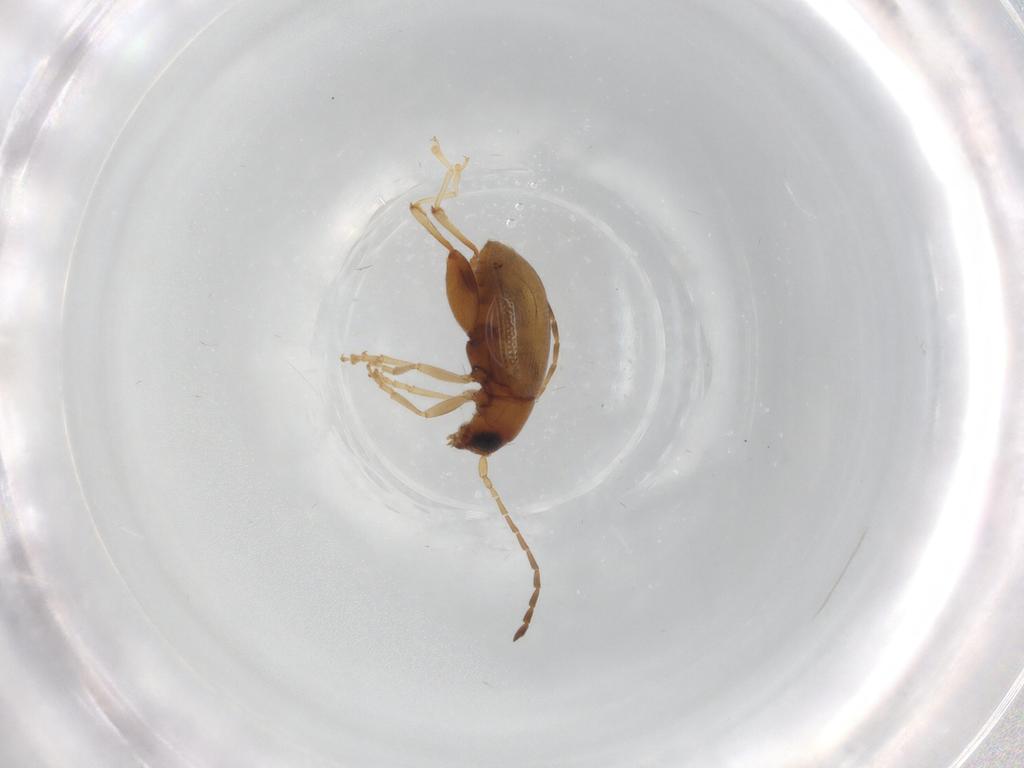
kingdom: Animalia
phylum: Arthropoda
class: Insecta
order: Coleoptera
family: Chrysomelidae
